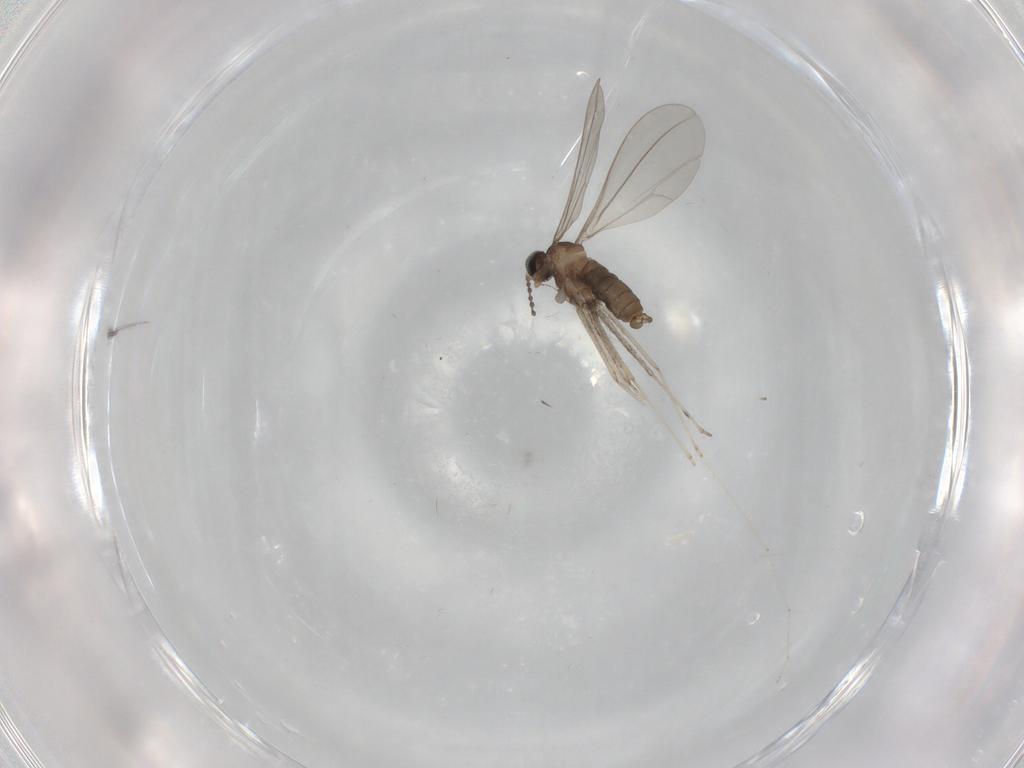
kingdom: Animalia
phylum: Arthropoda
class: Insecta
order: Diptera
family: Cecidomyiidae
